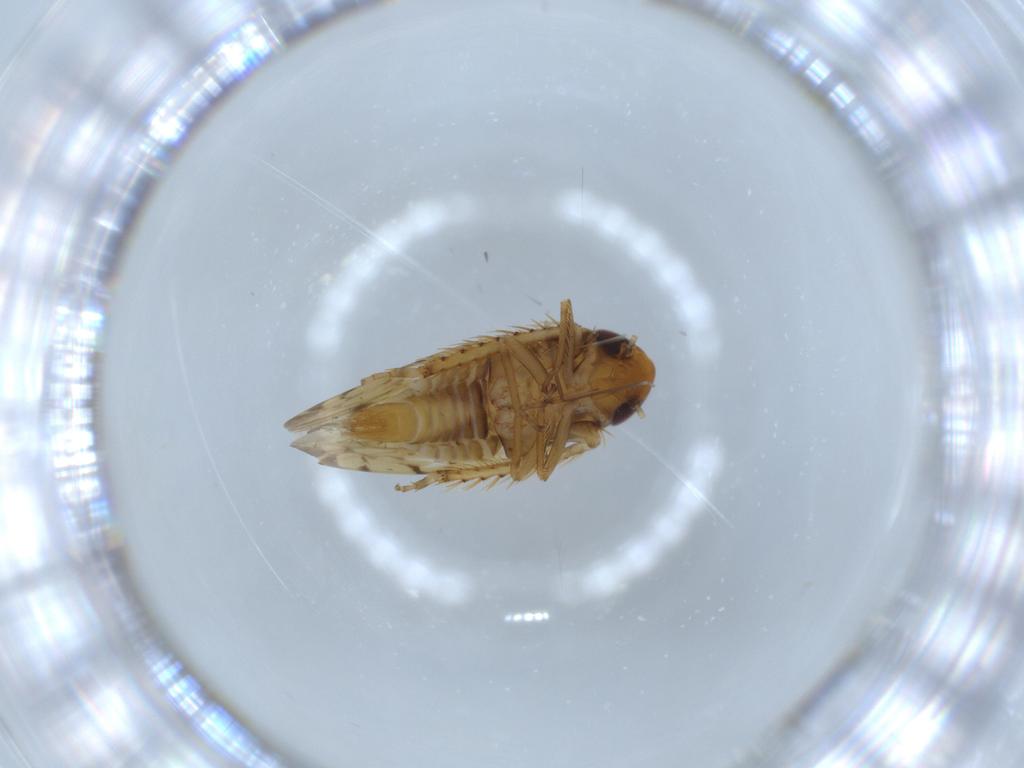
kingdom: Animalia
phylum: Arthropoda
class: Insecta
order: Hemiptera
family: Cicadellidae
